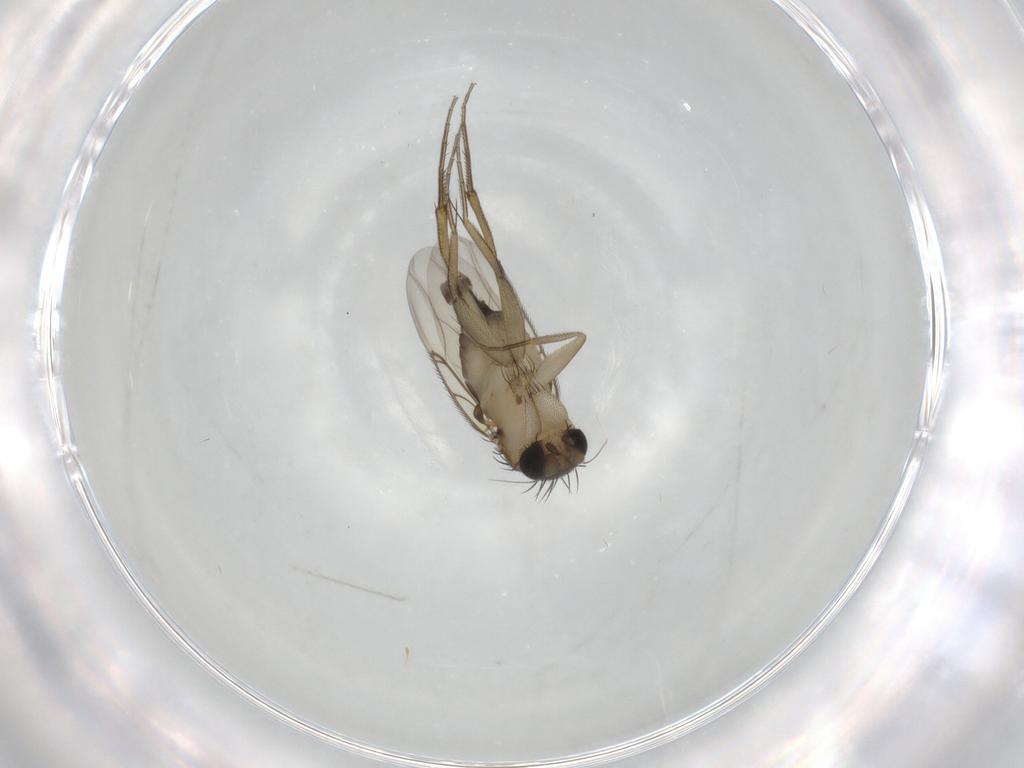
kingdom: Animalia
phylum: Arthropoda
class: Insecta
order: Diptera
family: Phoridae
